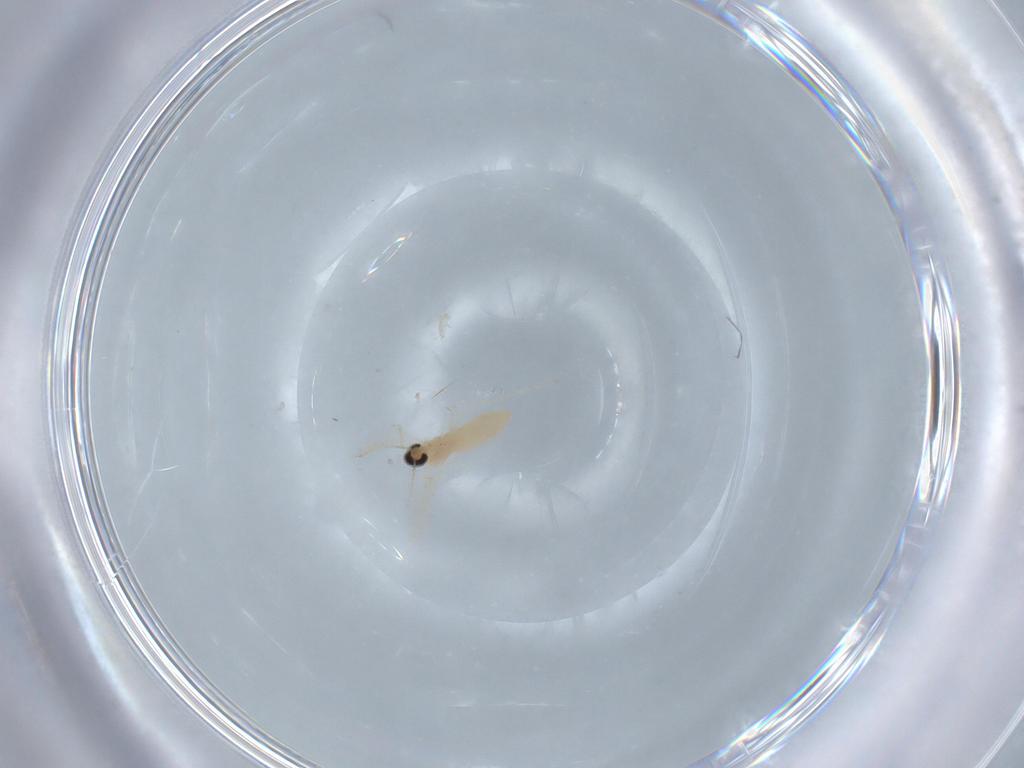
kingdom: Animalia
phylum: Arthropoda
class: Insecta
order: Diptera
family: Cecidomyiidae
